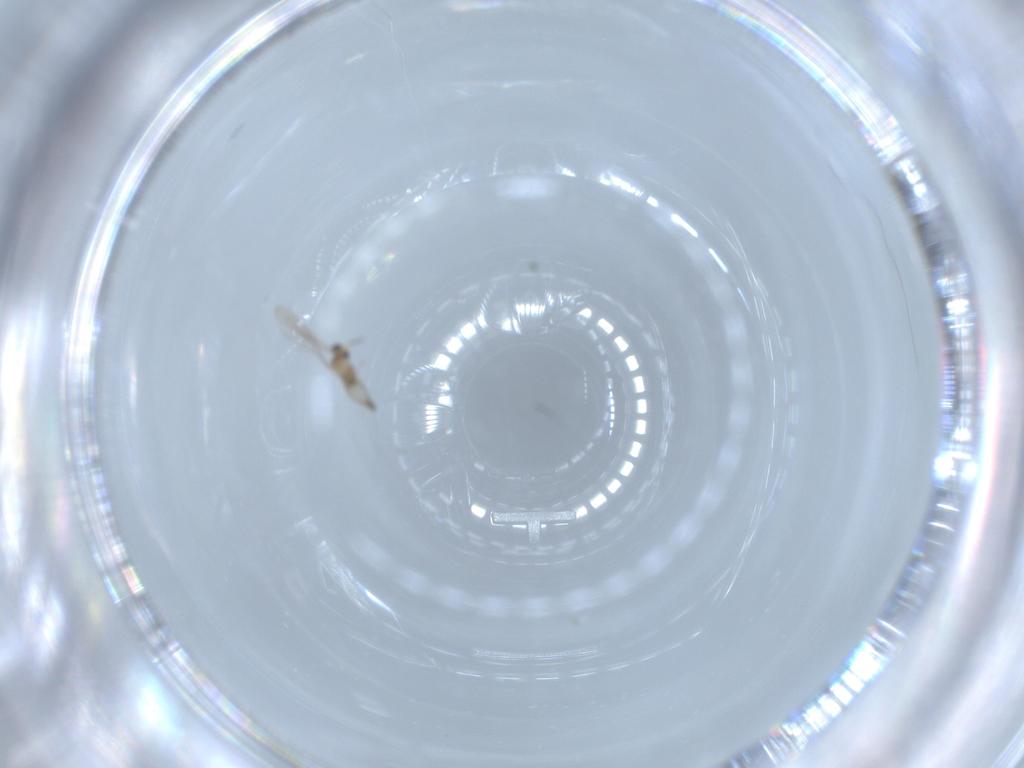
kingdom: Animalia
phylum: Arthropoda
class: Insecta
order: Diptera
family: Cecidomyiidae
